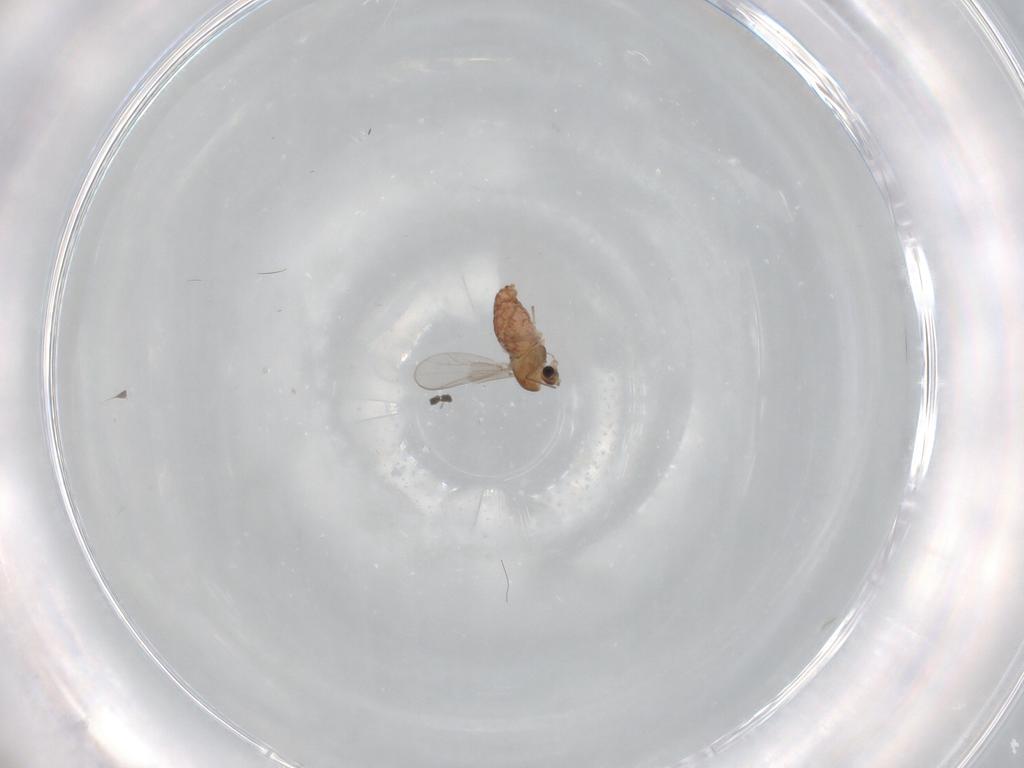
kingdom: Animalia
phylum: Arthropoda
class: Insecta
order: Diptera
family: Chironomidae
